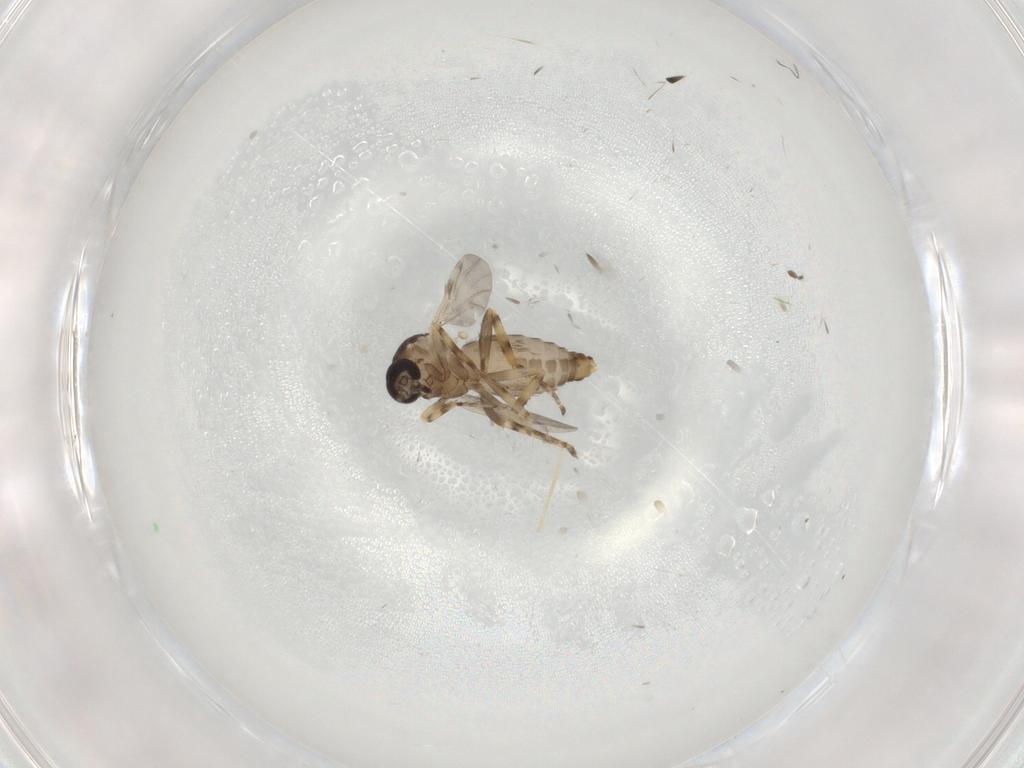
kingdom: Animalia
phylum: Arthropoda
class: Insecta
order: Diptera
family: Ceratopogonidae
